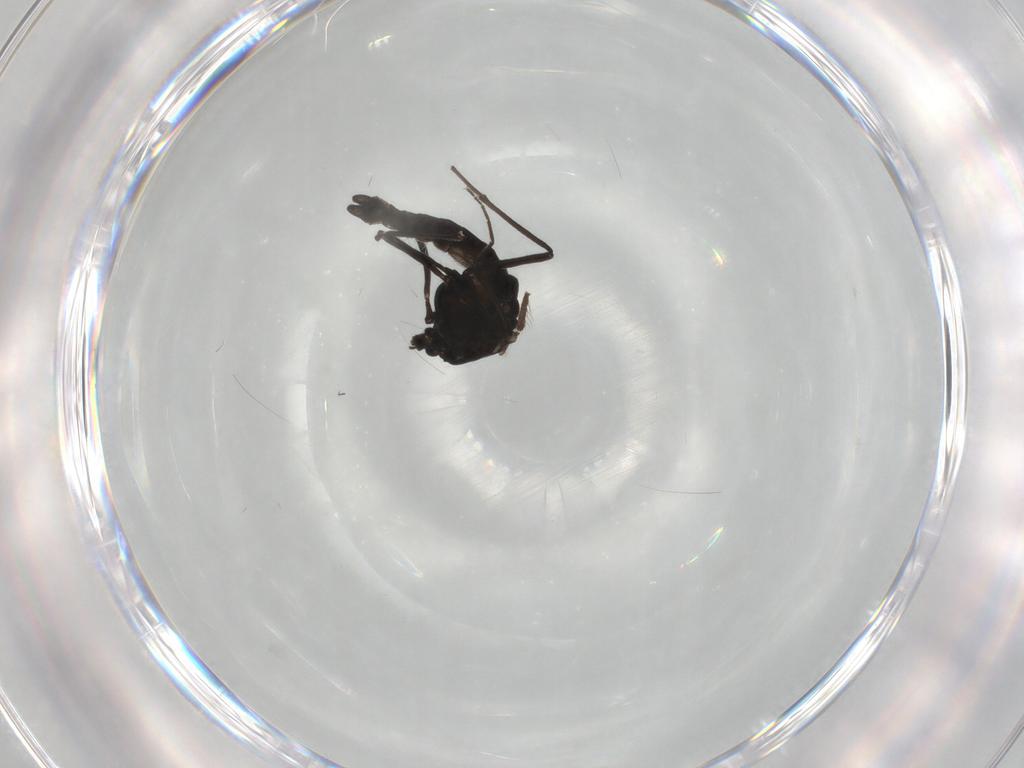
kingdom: Animalia
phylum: Arthropoda
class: Insecta
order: Diptera
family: Chironomidae
